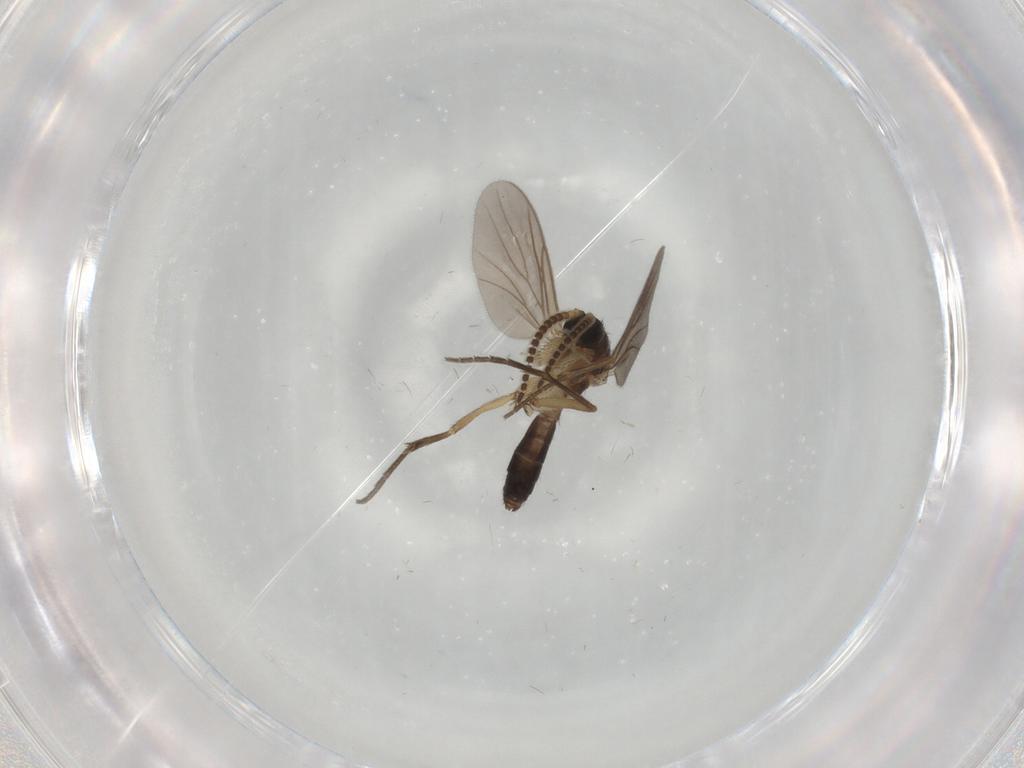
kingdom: Animalia
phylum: Arthropoda
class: Insecta
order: Diptera
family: Mycetophilidae
